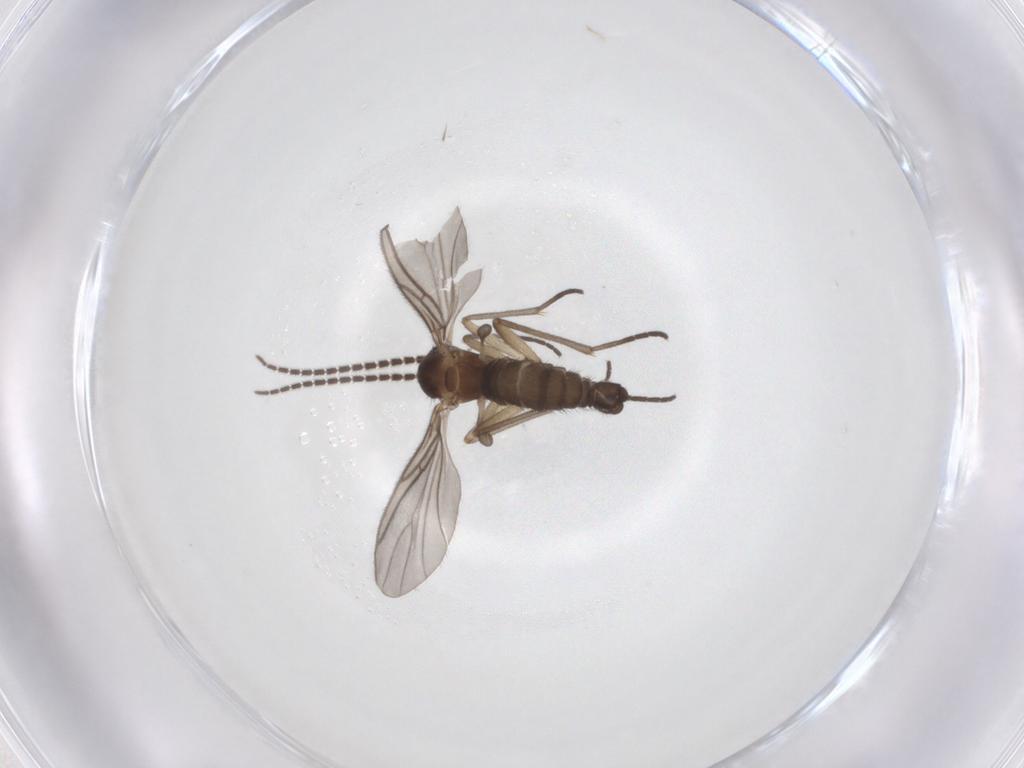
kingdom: Animalia
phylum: Arthropoda
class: Insecta
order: Diptera
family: Sciaridae
